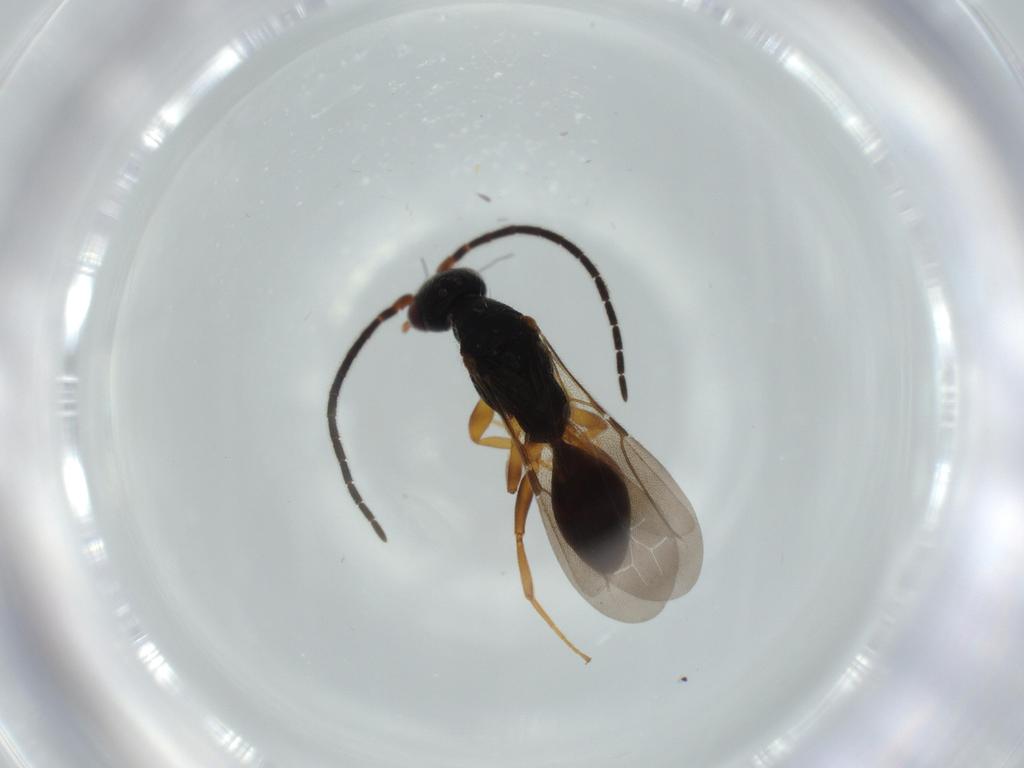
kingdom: Animalia
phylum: Arthropoda
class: Insecta
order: Hymenoptera
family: Bethylidae
